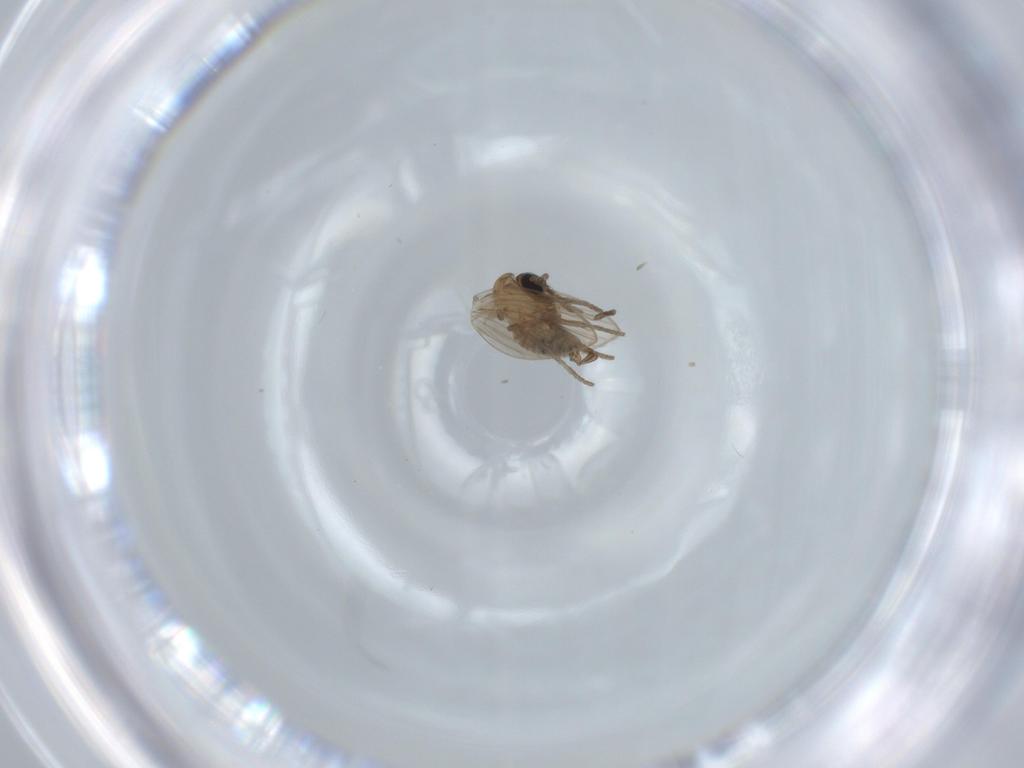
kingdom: Animalia
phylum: Arthropoda
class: Insecta
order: Diptera
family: Psychodidae
